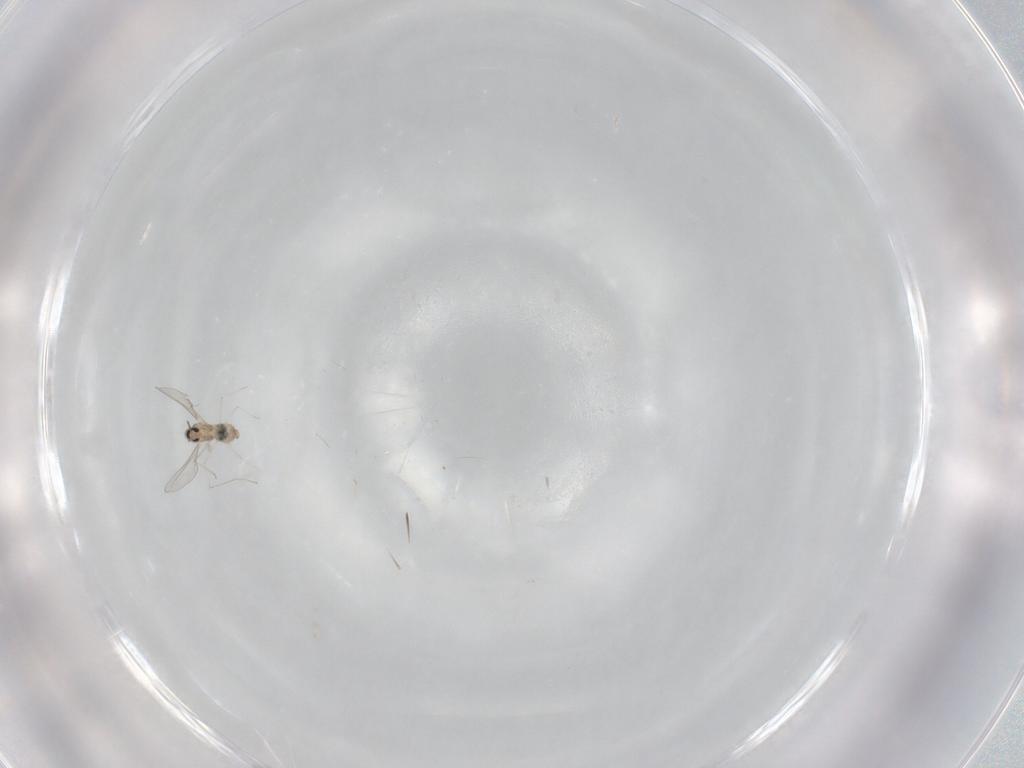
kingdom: Animalia
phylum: Arthropoda
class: Insecta
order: Diptera
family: Cecidomyiidae
